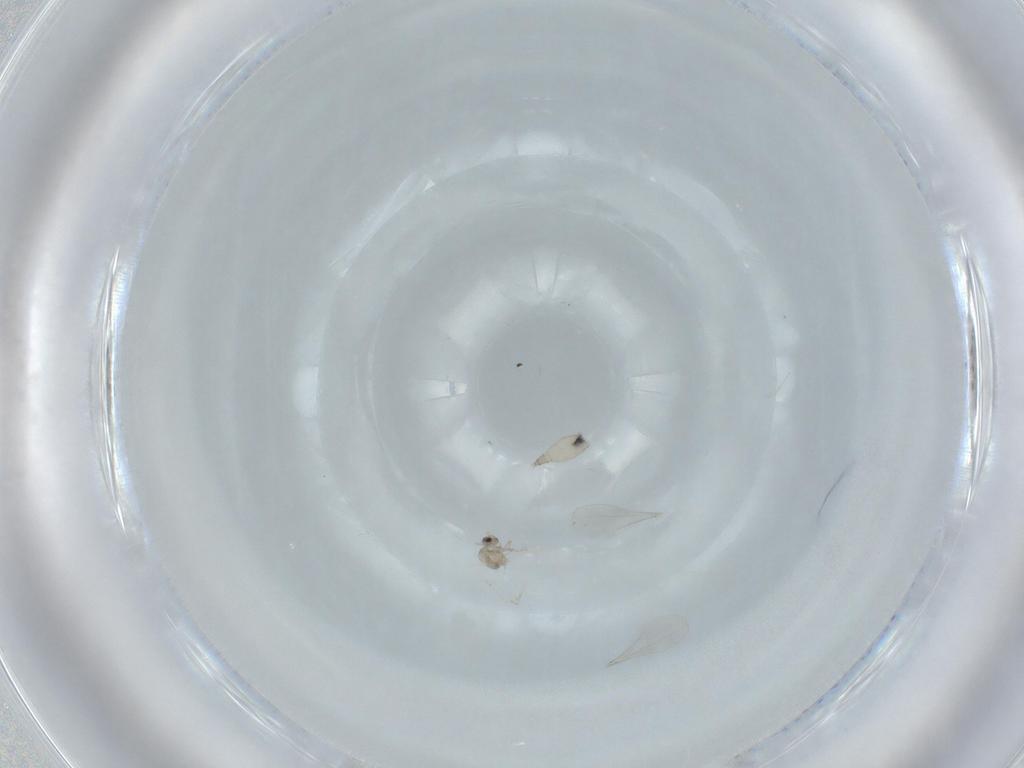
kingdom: Animalia
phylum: Arthropoda
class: Insecta
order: Diptera
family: Cecidomyiidae
